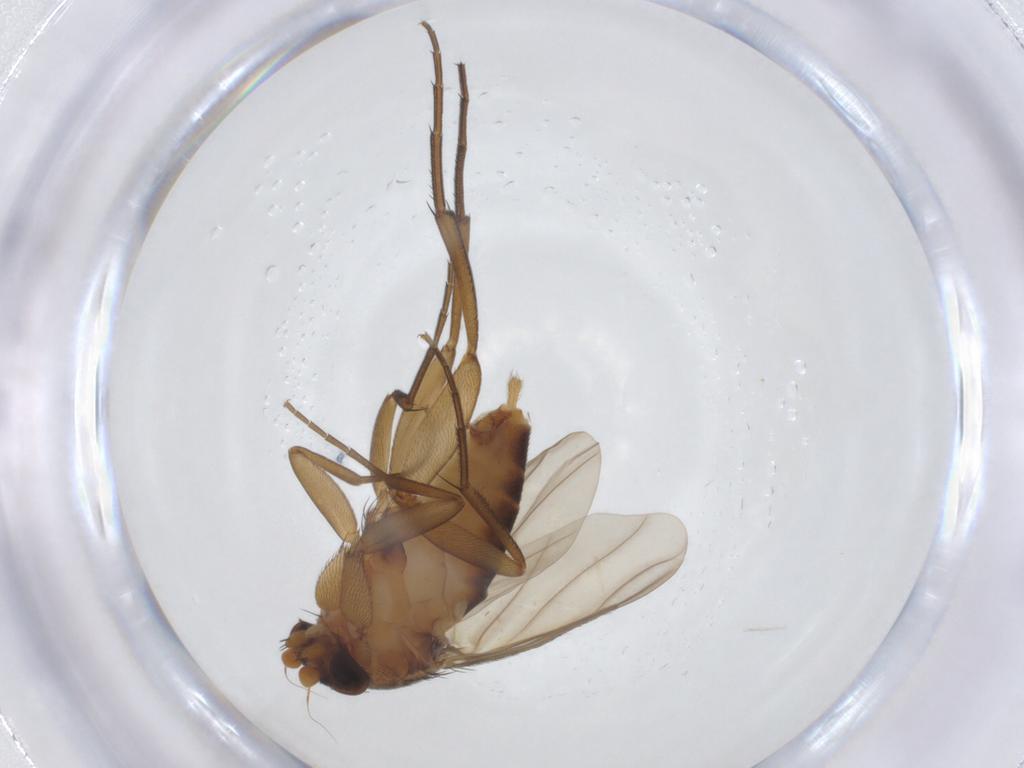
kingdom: Animalia
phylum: Arthropoda
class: Insecta
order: Diptera
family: Phoridae
